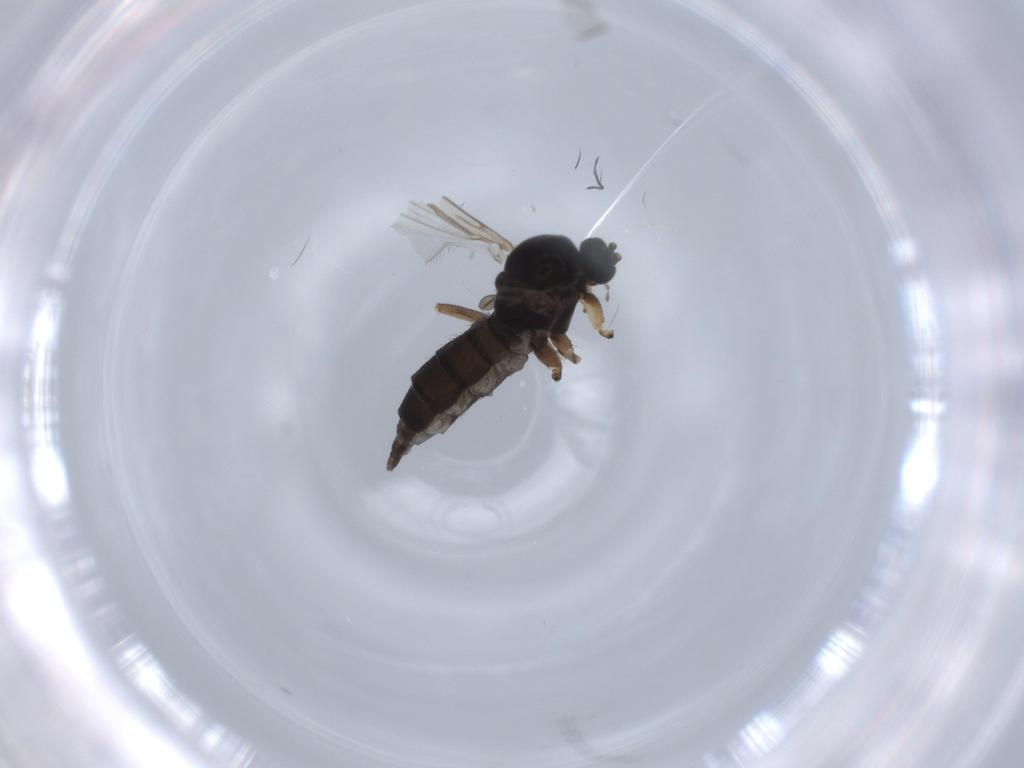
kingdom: Animalia
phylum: Arthropoda
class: Insecta
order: Diptera
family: Sciaridae
